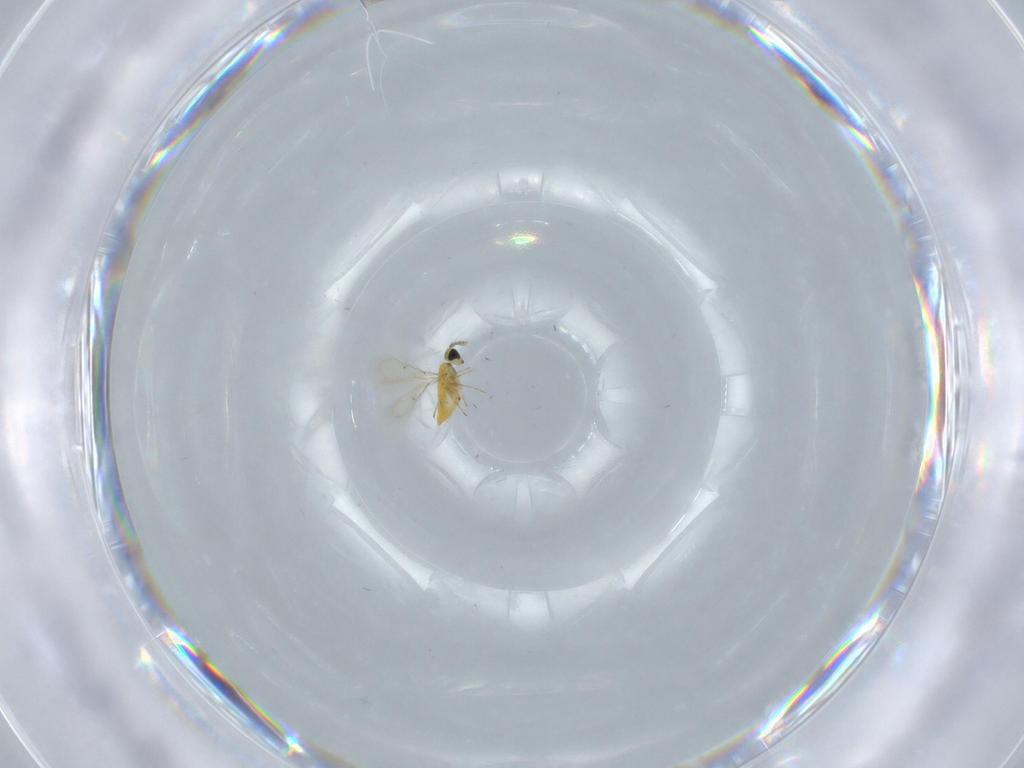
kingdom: Animalia
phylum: Arthropoda
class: Insecta
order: Hymenoptera
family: Trichogrammatidae
